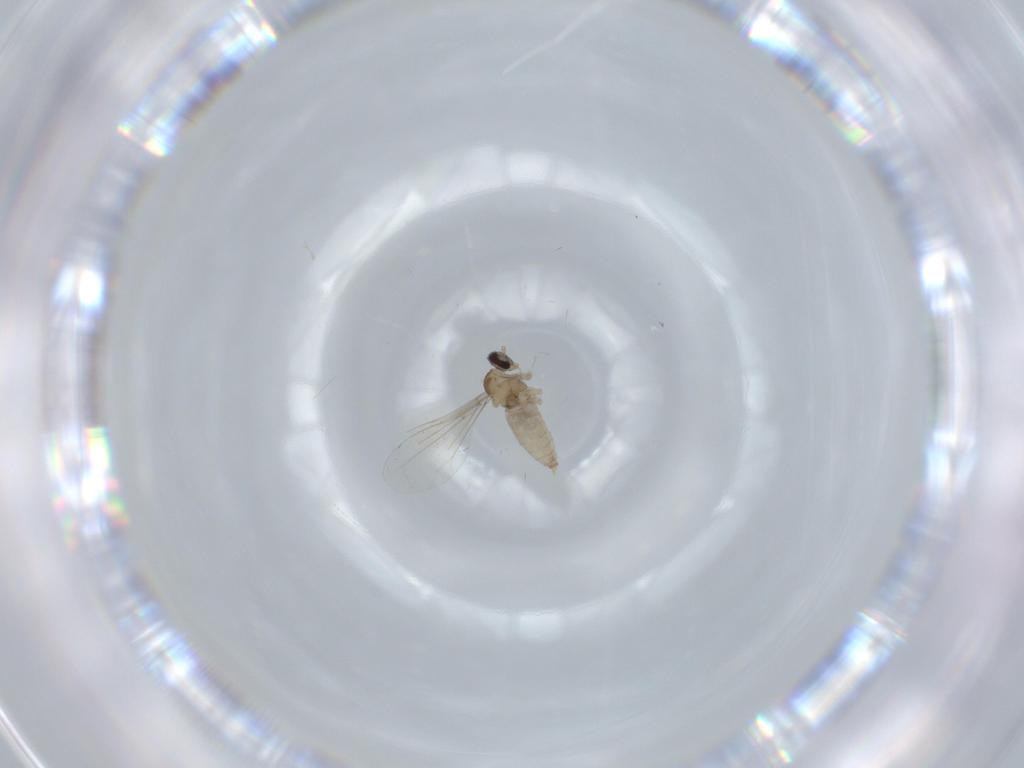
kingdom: Animalia
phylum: Arthropoda
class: Insecta
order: Diptera
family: Cecidomyiidae
